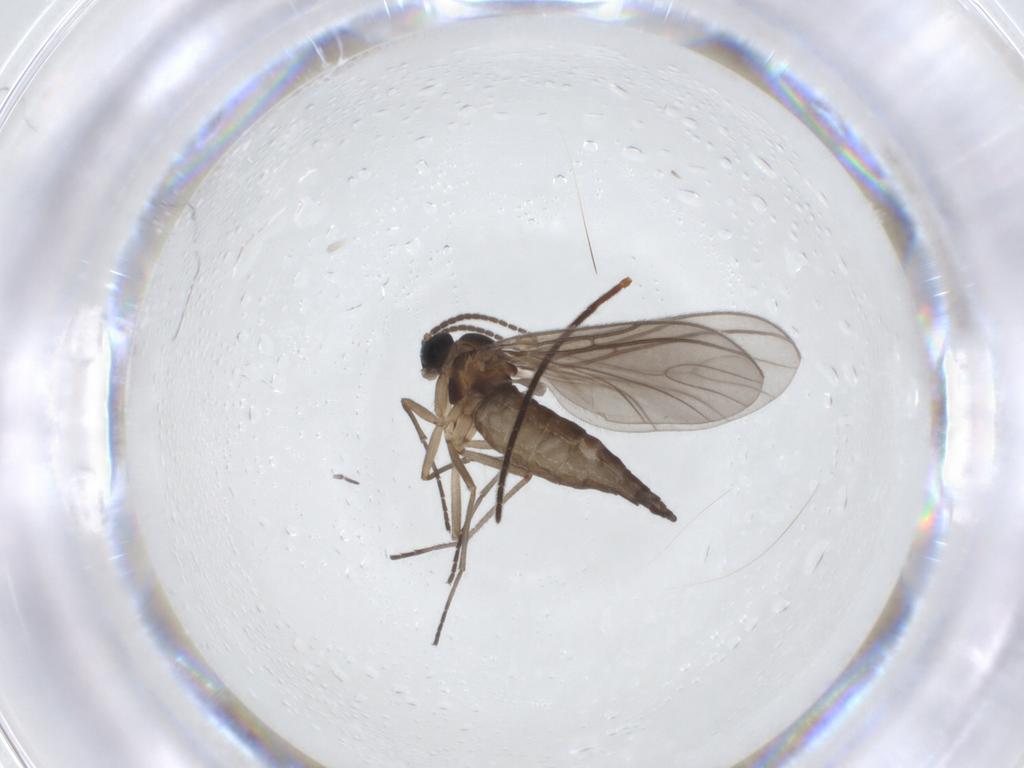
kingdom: Animalia
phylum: Arthropoda
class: Insecta
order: Diptera
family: Sciaridae
